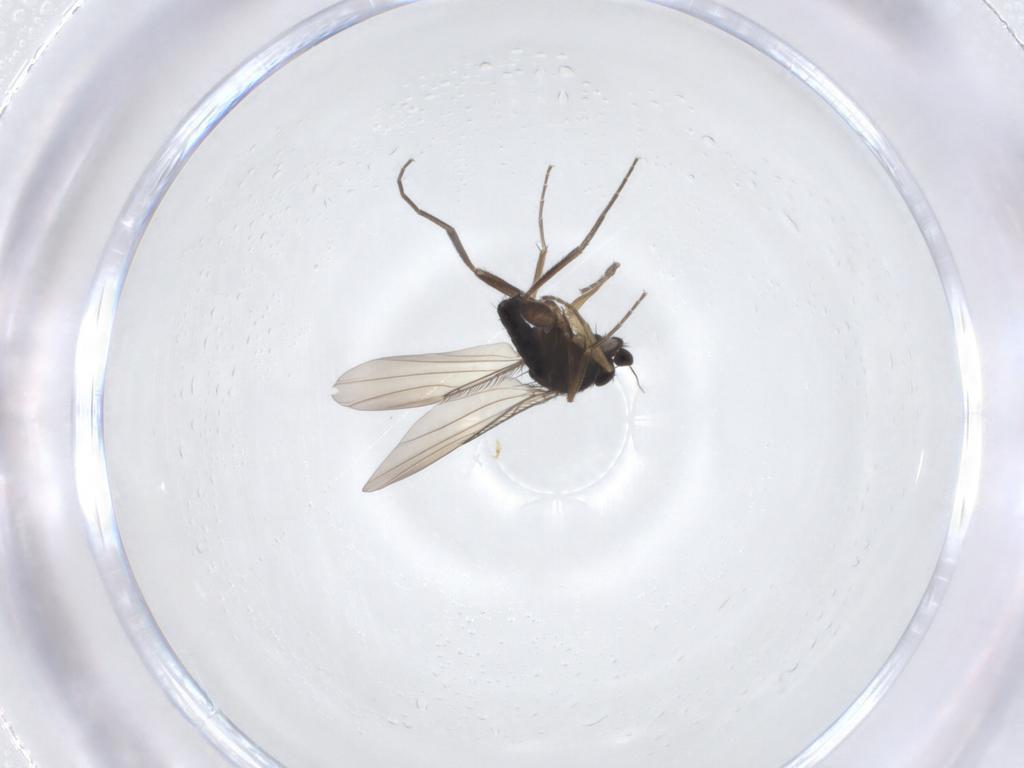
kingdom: Animalia
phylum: Arthropoda
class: Insecta
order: Diptera
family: Phoridae
